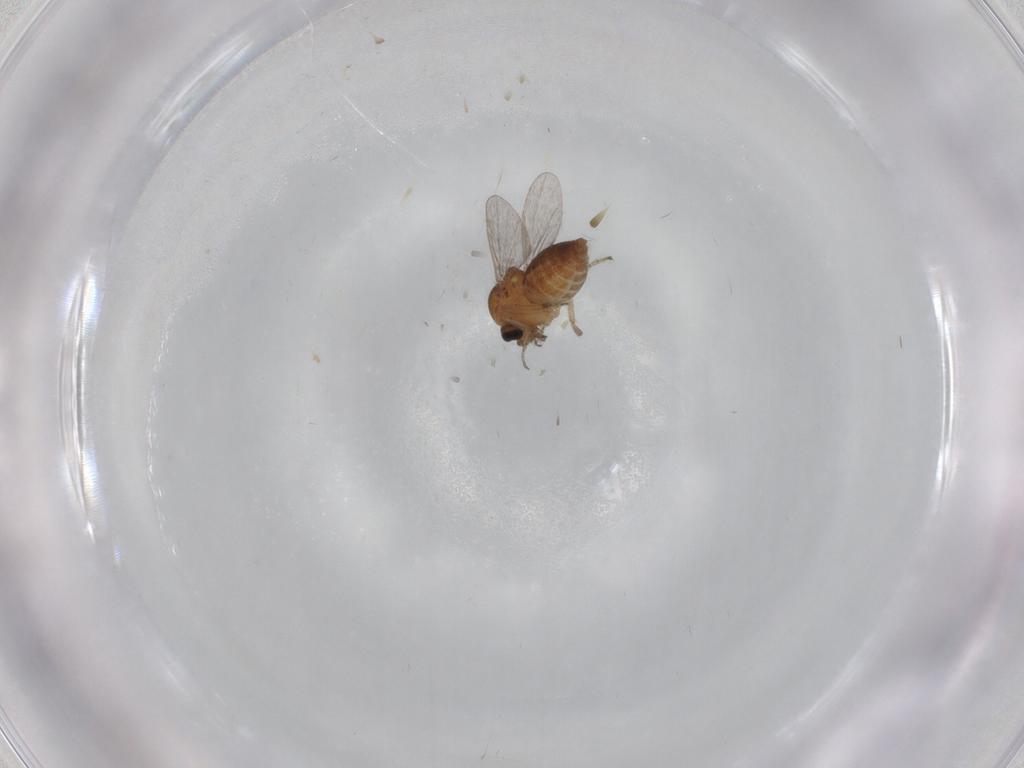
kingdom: Animalia
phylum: Arthropoda
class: Insecta
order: Diptera
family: Ceratopogonidae
